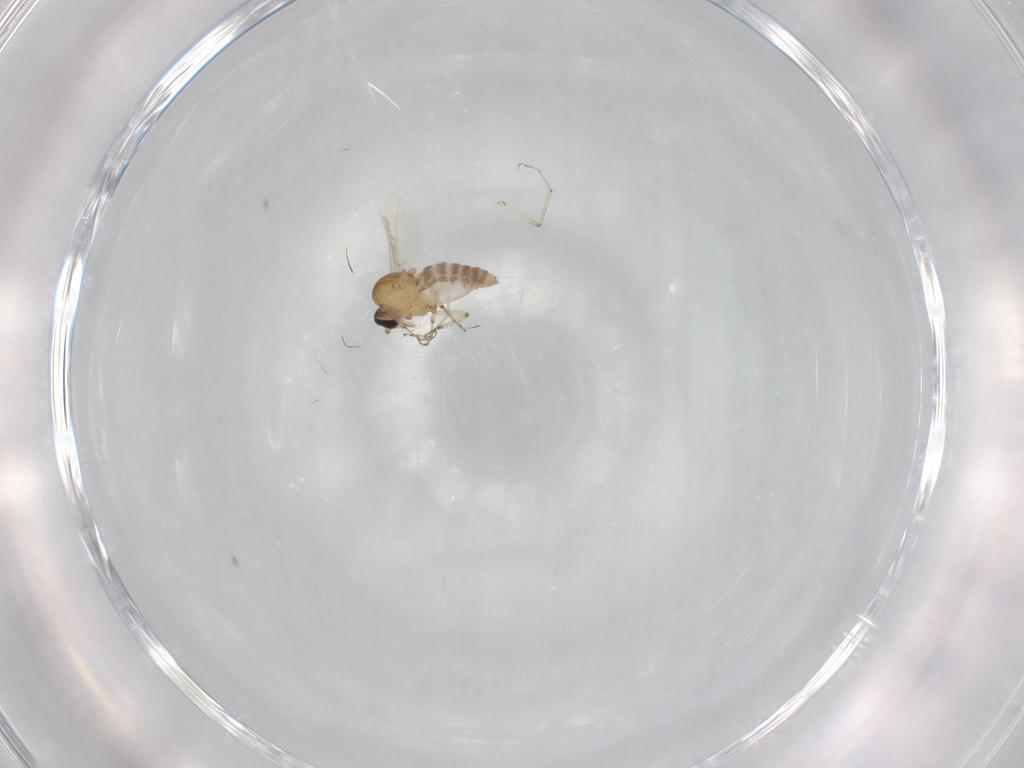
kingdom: Animalia
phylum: Arthropoda
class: Insecta
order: Diptera
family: Ceratopogonidae
